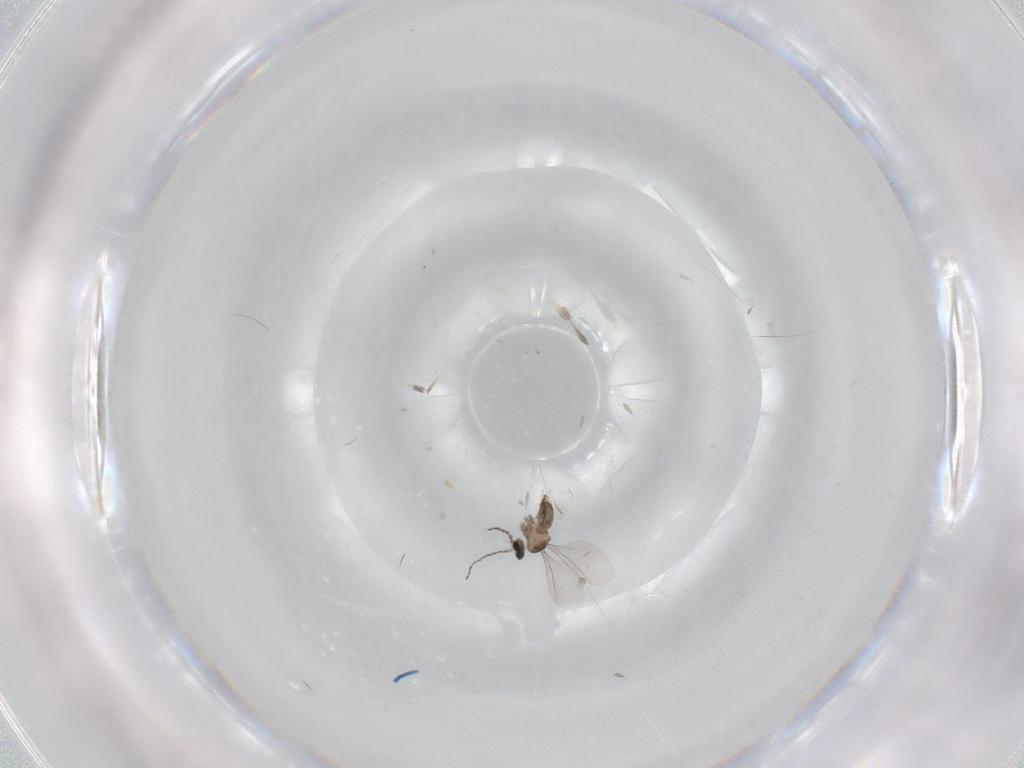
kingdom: Animalia
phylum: Arthropoda
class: Insecta
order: Diptera
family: Chironomidae
